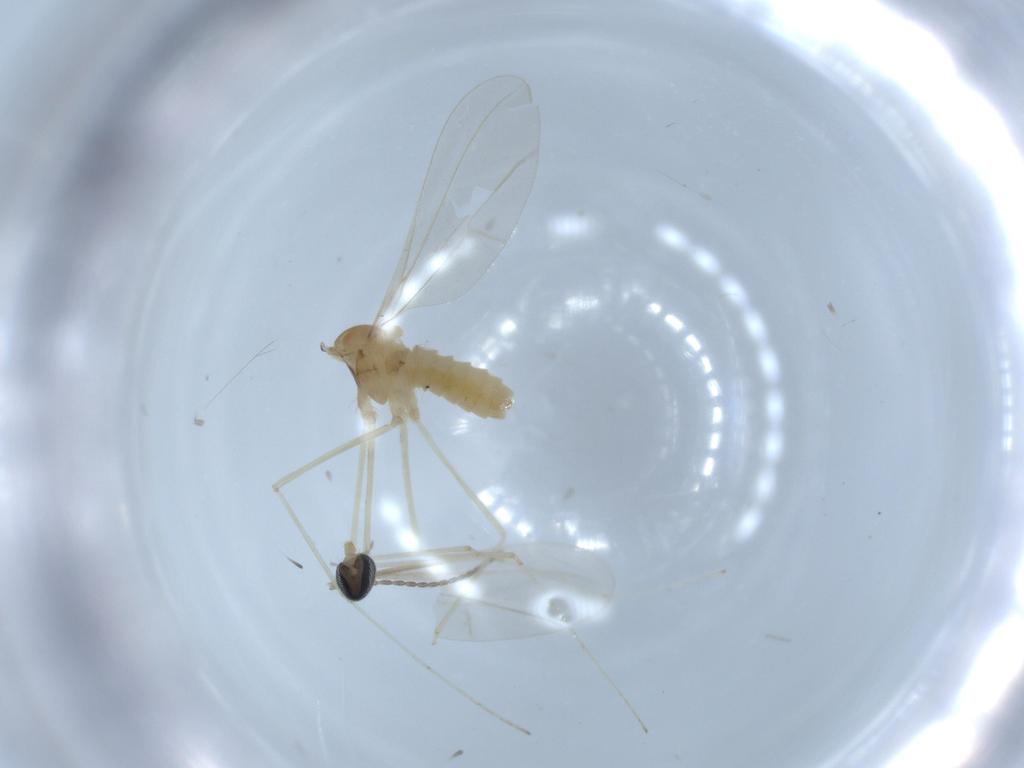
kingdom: Animalia
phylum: Arthropoda
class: Insecta
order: Diptera
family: Cecidomyiidae
